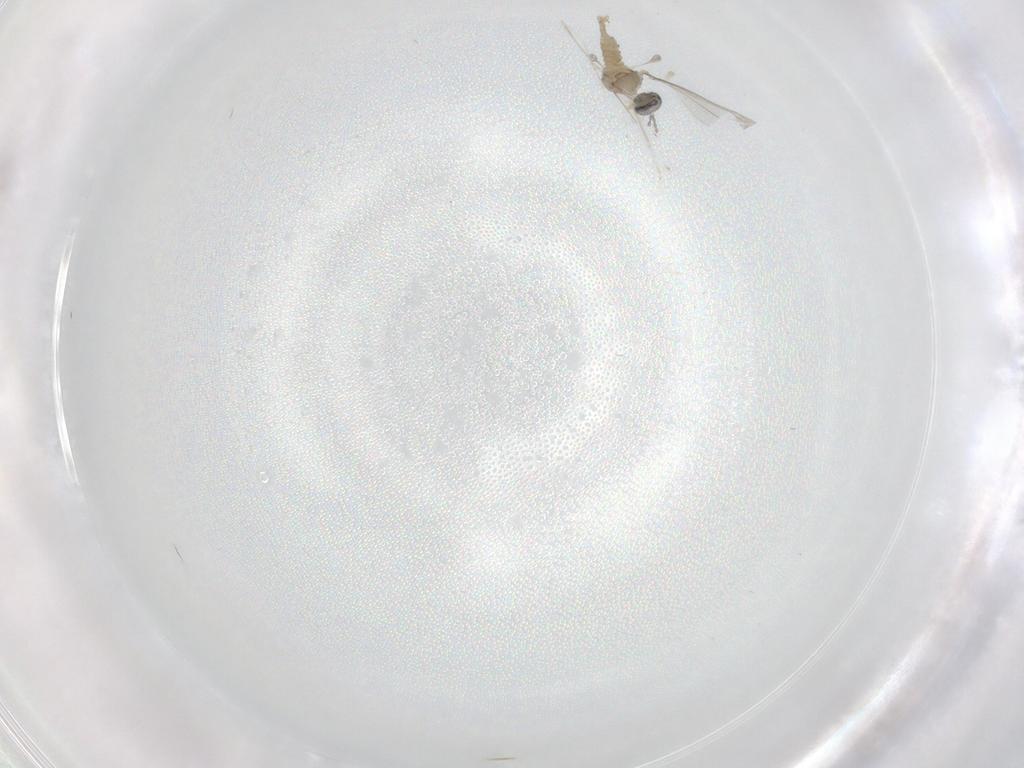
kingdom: Animalia
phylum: Arthropoda
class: Insecta
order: Diptera
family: Cecidomyiidae
